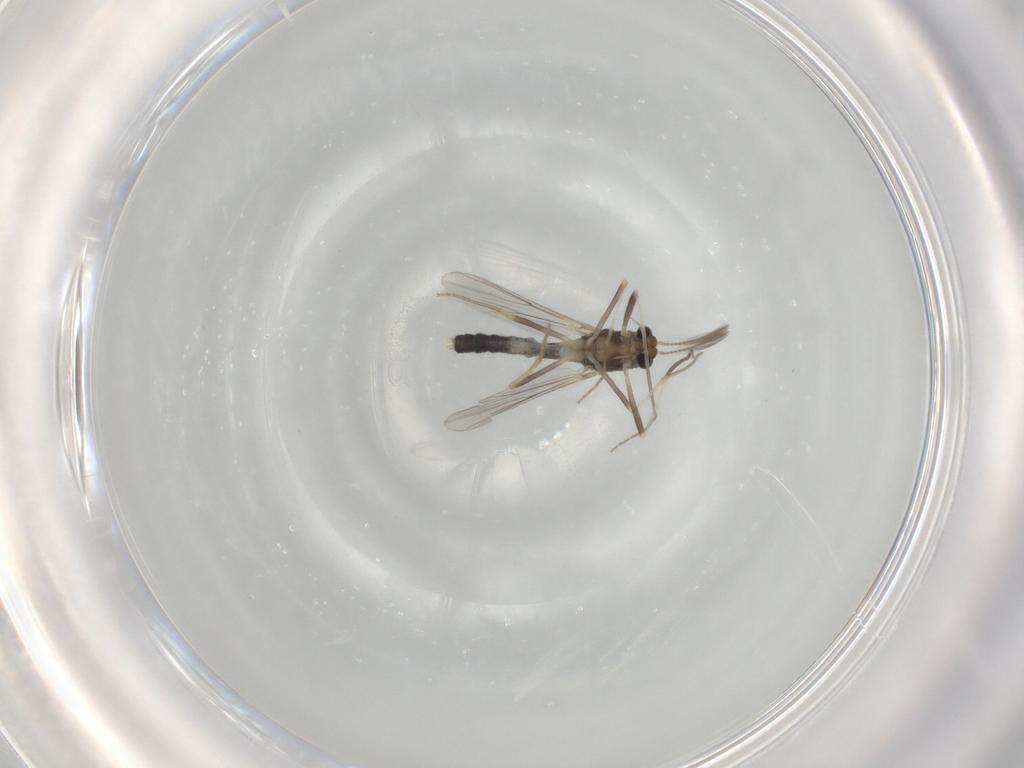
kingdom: Animalia
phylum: Arthropoda
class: Insecta
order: Diptera
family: Chironomidae
